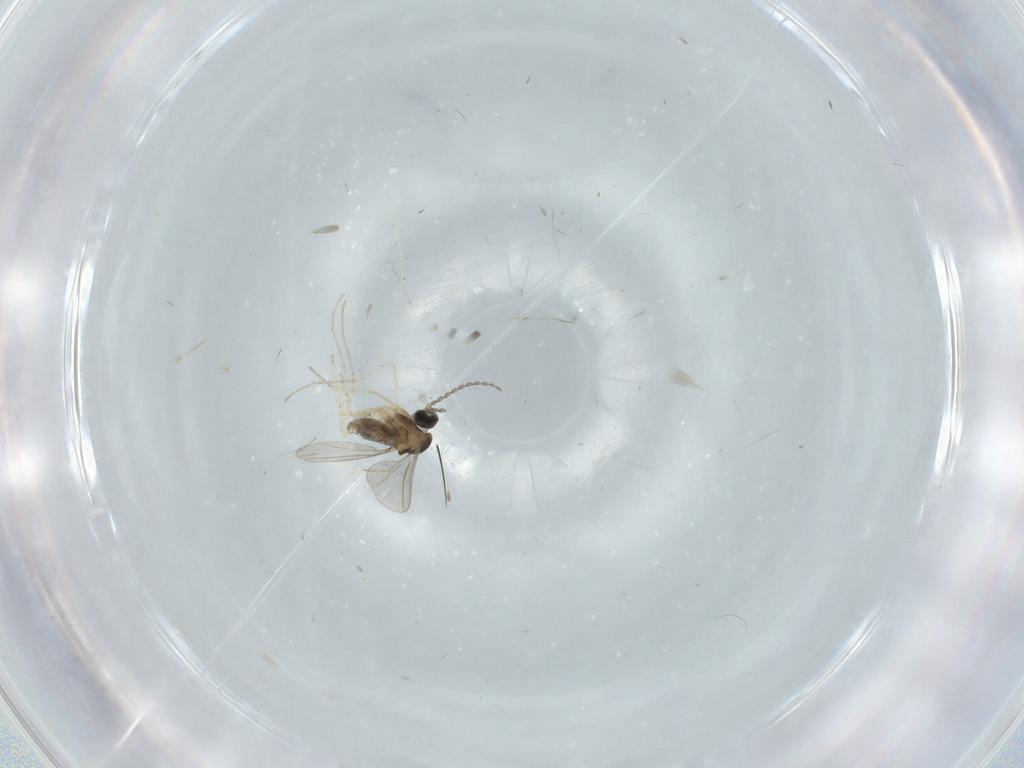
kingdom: Animalia
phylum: Arthropoda
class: Insecta
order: Diptera
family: Cecidomyiidae
